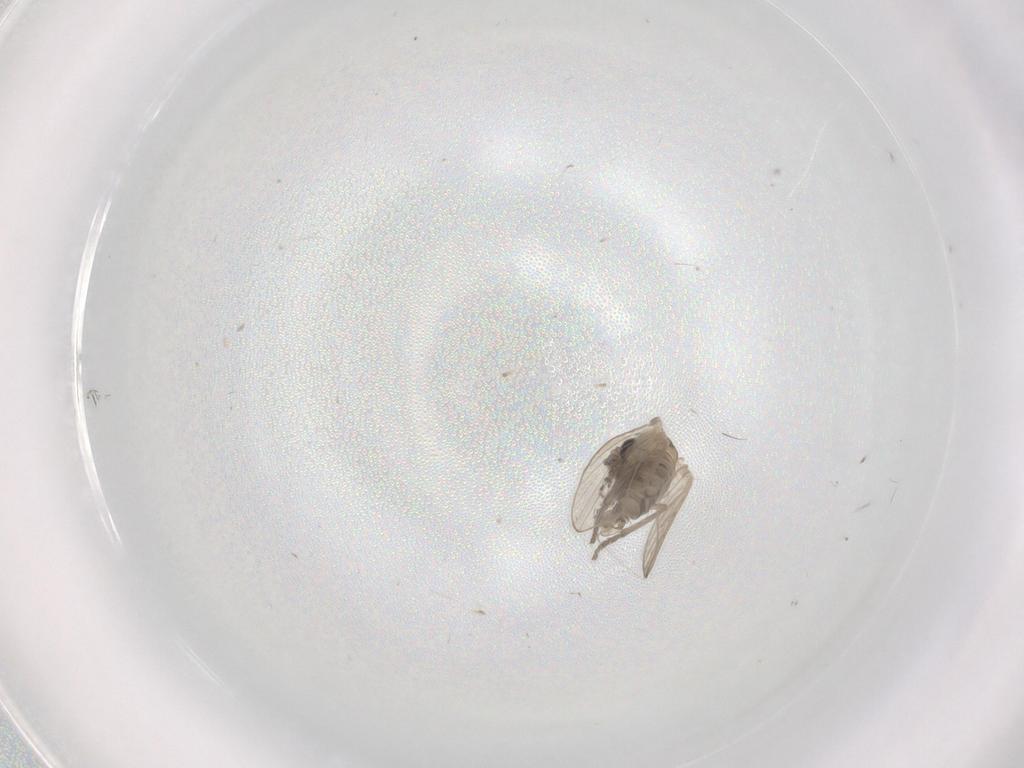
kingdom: Animalia
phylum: Arthropoda
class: Insecta
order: Diptera
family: Psychodidae
